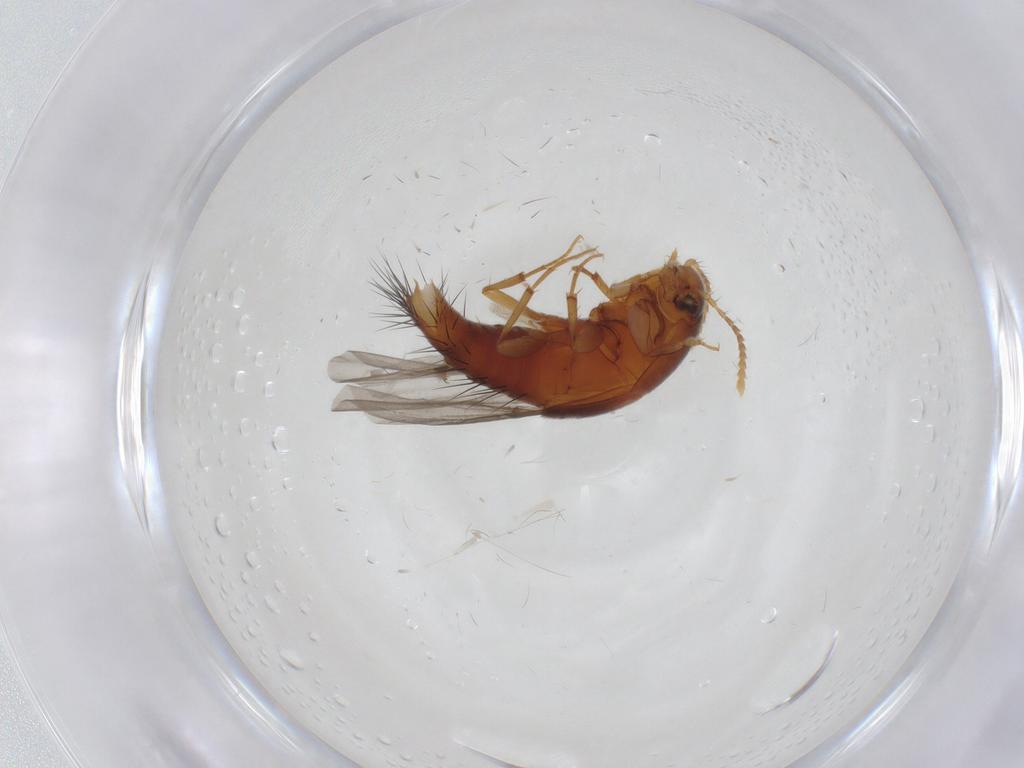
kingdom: Animalia
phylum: Arthropoda
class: Insecta
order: Coleoptera
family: Staphylinidae
